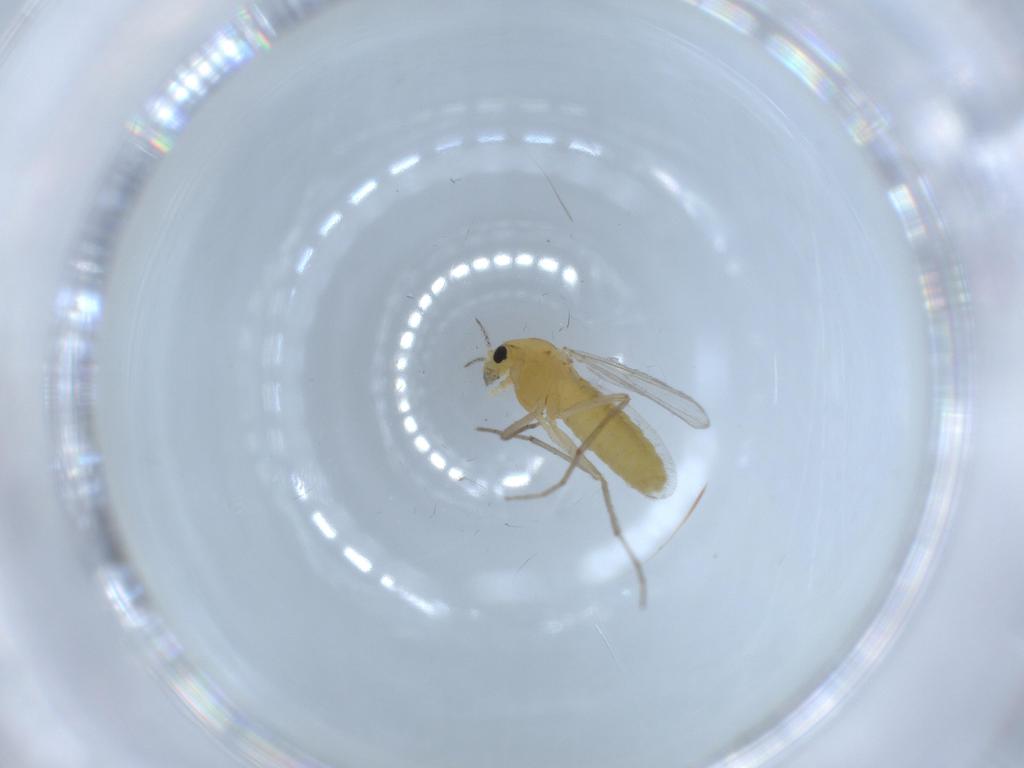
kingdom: Animalia
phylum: Arthropoda
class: Insecta
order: Diptera
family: Chironomidae
